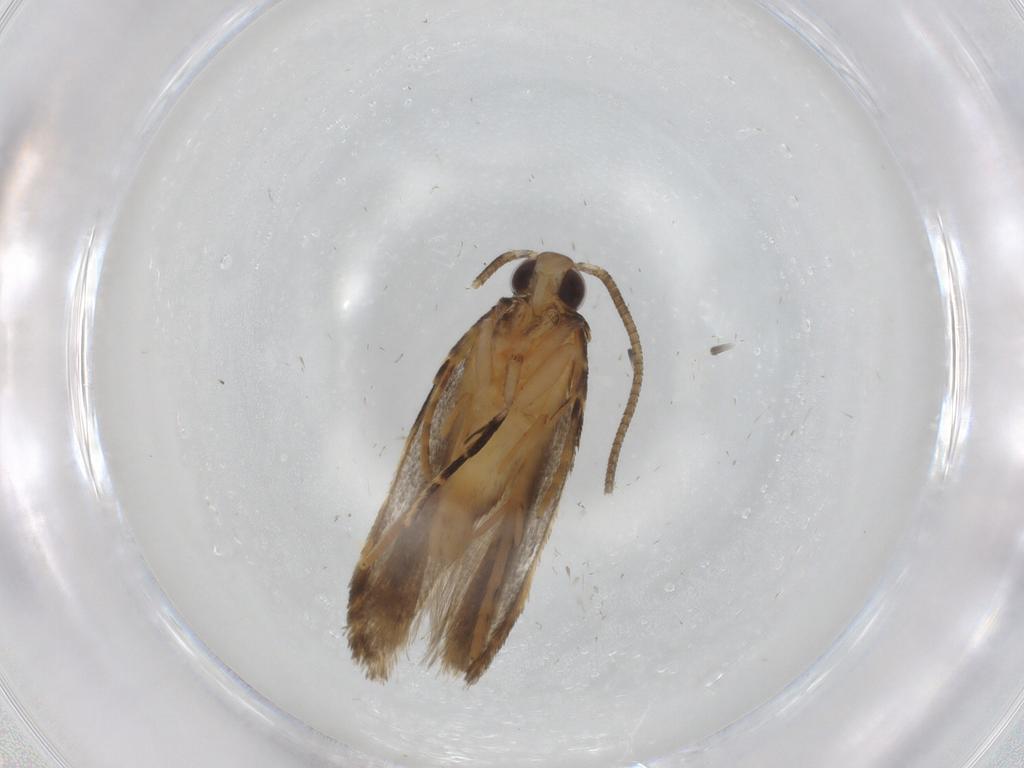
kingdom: Animalia
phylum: Arthropoda
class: Insecta
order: Lepidoptera
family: Autostichidae
